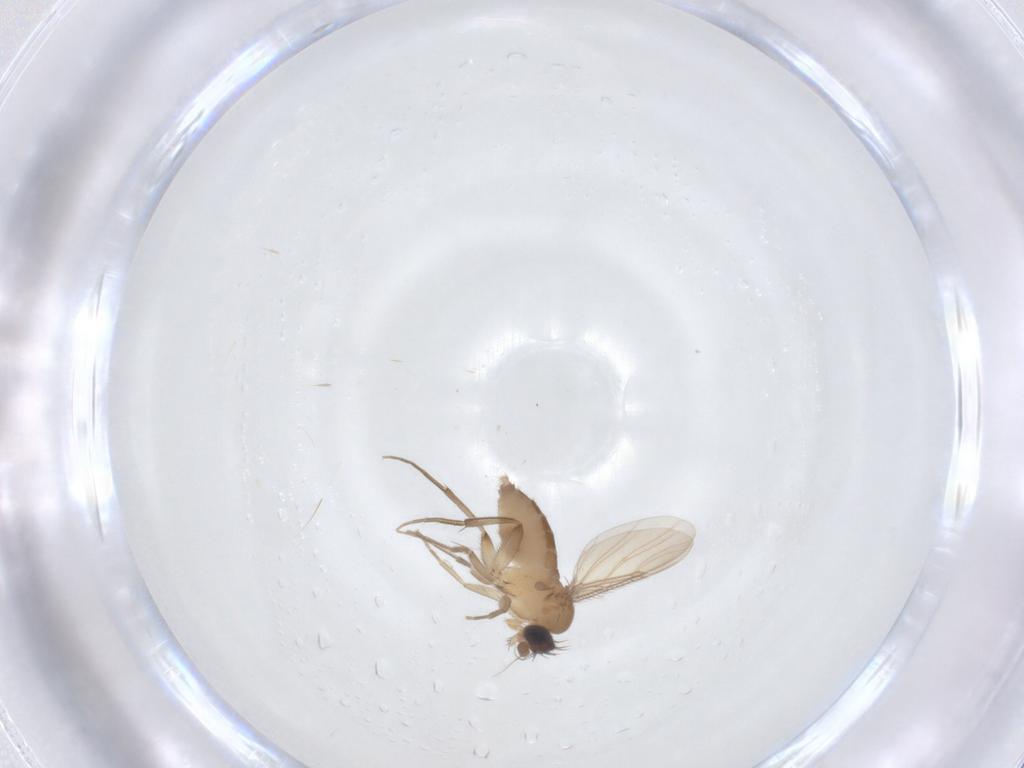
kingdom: Animalia
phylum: Arthropoda
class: Insecta
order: Diptera
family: Phoridae
